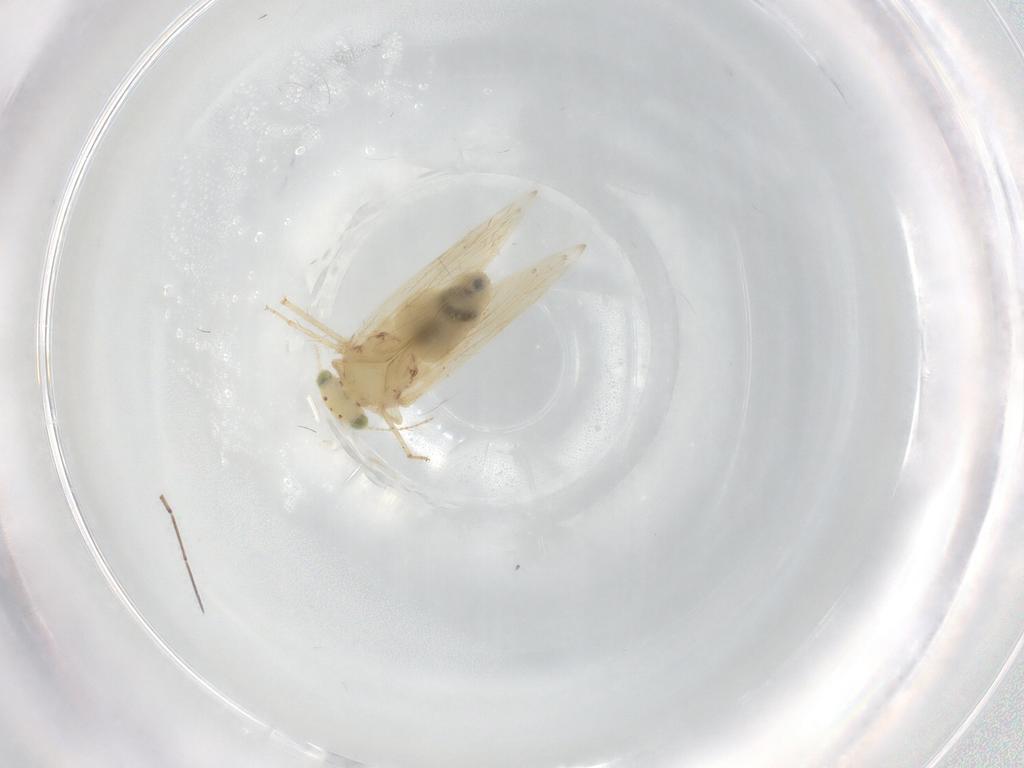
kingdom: Animalia
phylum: Arthropoda
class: Insecta
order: Psocodea
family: Lepidopsocidae
